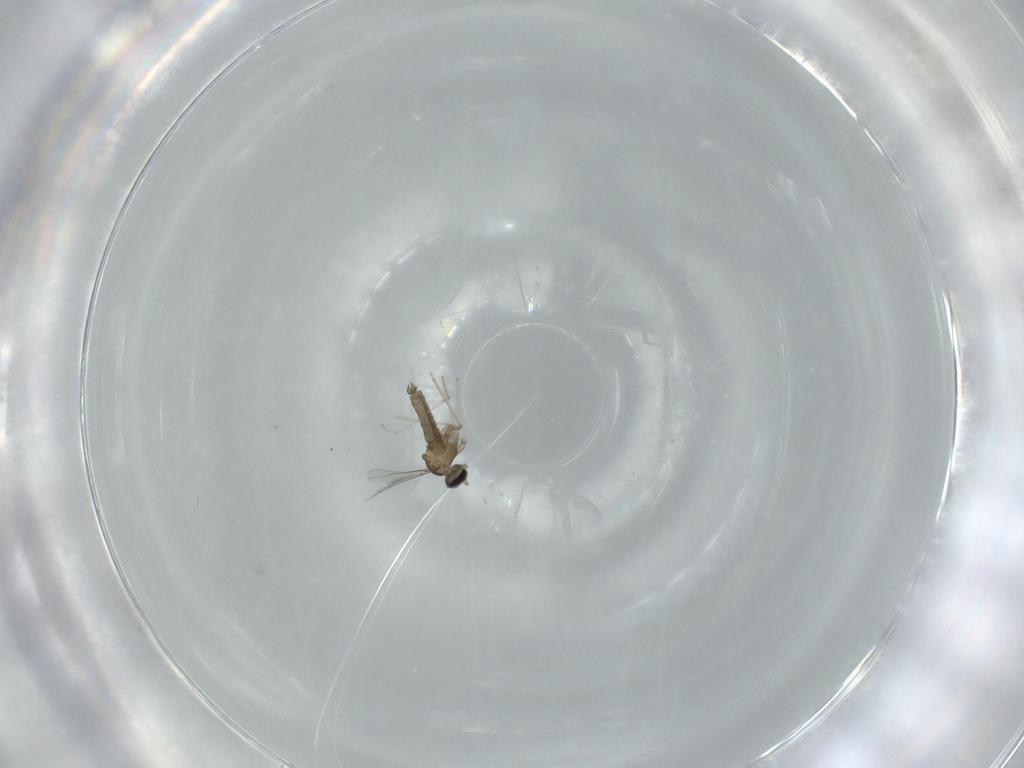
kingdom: Animalia
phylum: Arthropoda
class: Insecta
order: Diptera
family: Cecidomyiidae
